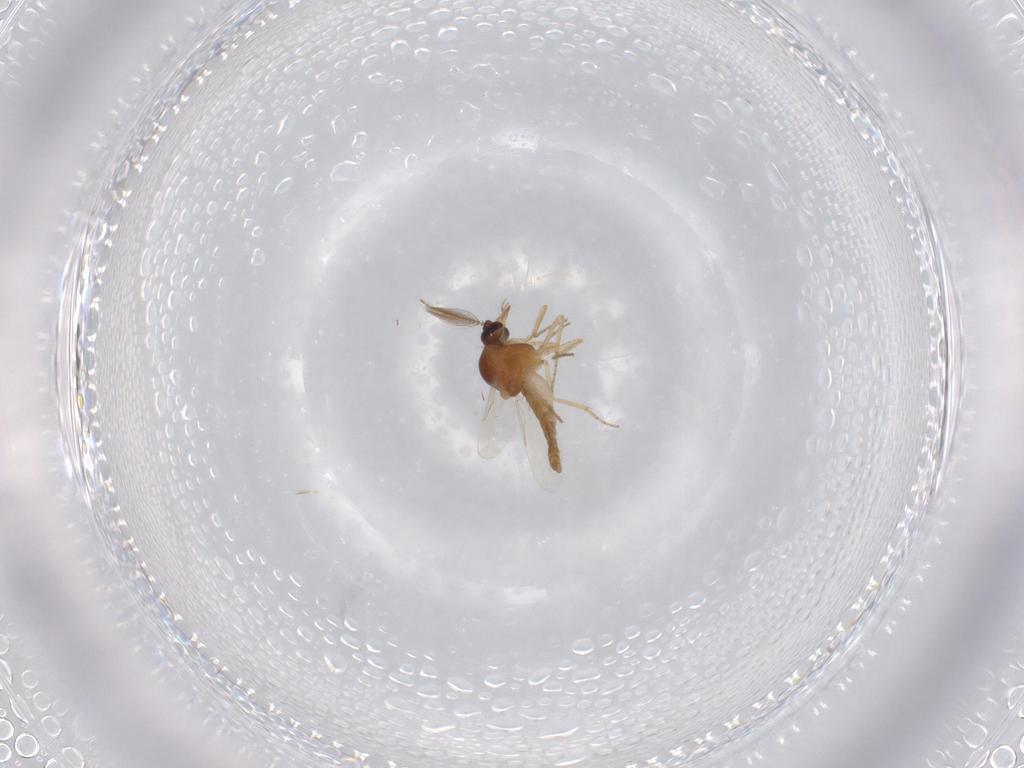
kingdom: Animalia
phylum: Arthropoda
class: Insecta
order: Diptera
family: Ceratopogonidae
